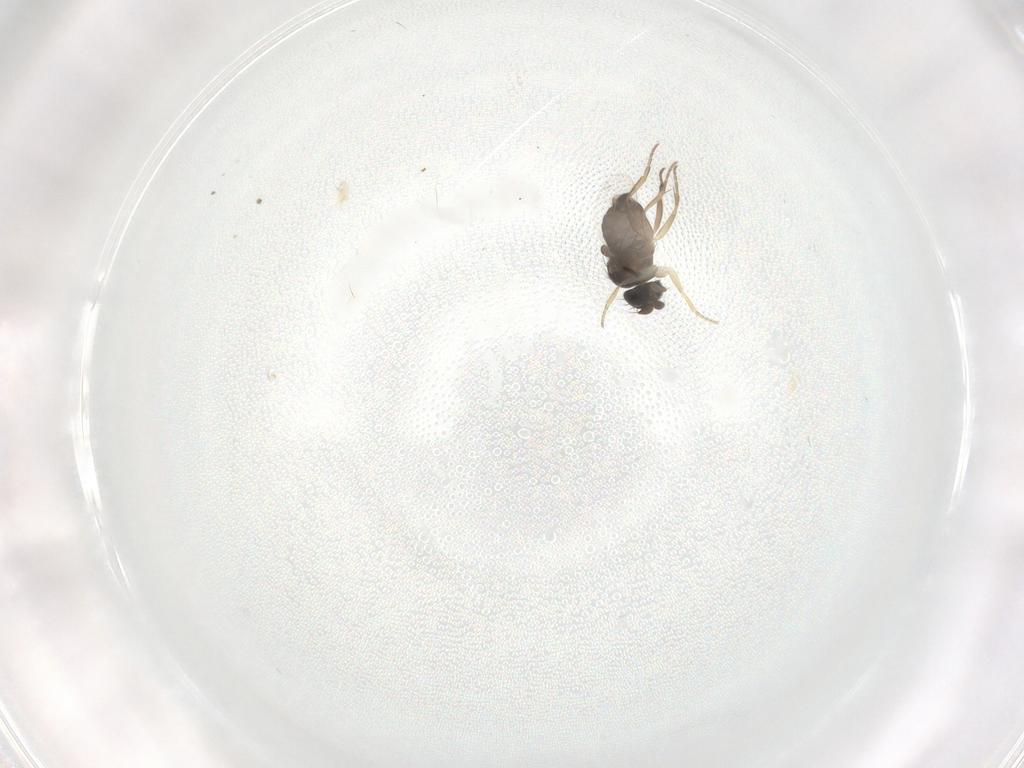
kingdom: Animalia
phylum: Arthropoda
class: Insecta
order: Diptera
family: Phoridae
